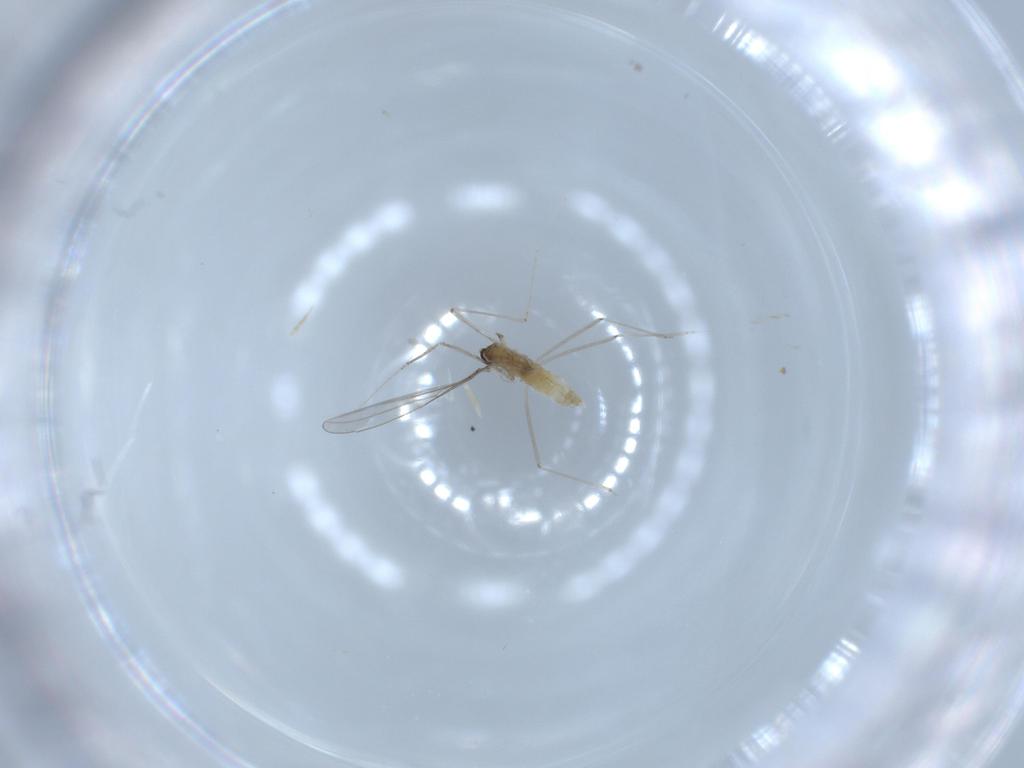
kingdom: Animalia
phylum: Arthropoda
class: Insecta
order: Diptera
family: Cecidomyiidae
